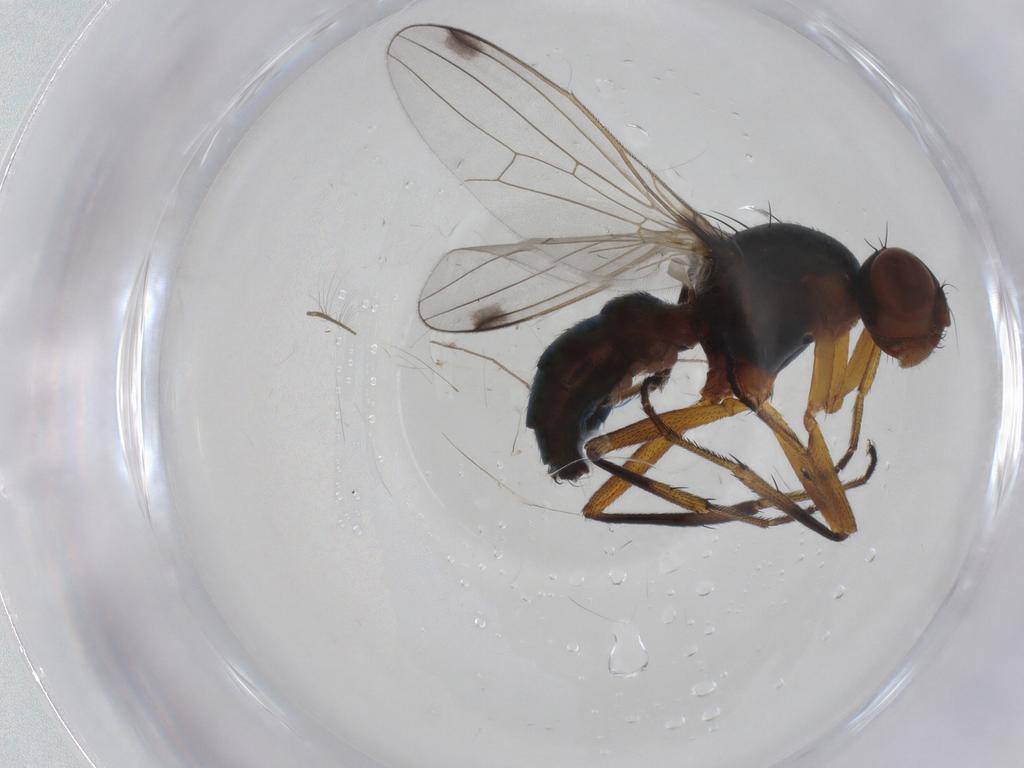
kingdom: Animalia
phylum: Arthropoda
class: Insecta
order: Diptera
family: Sepsidae
